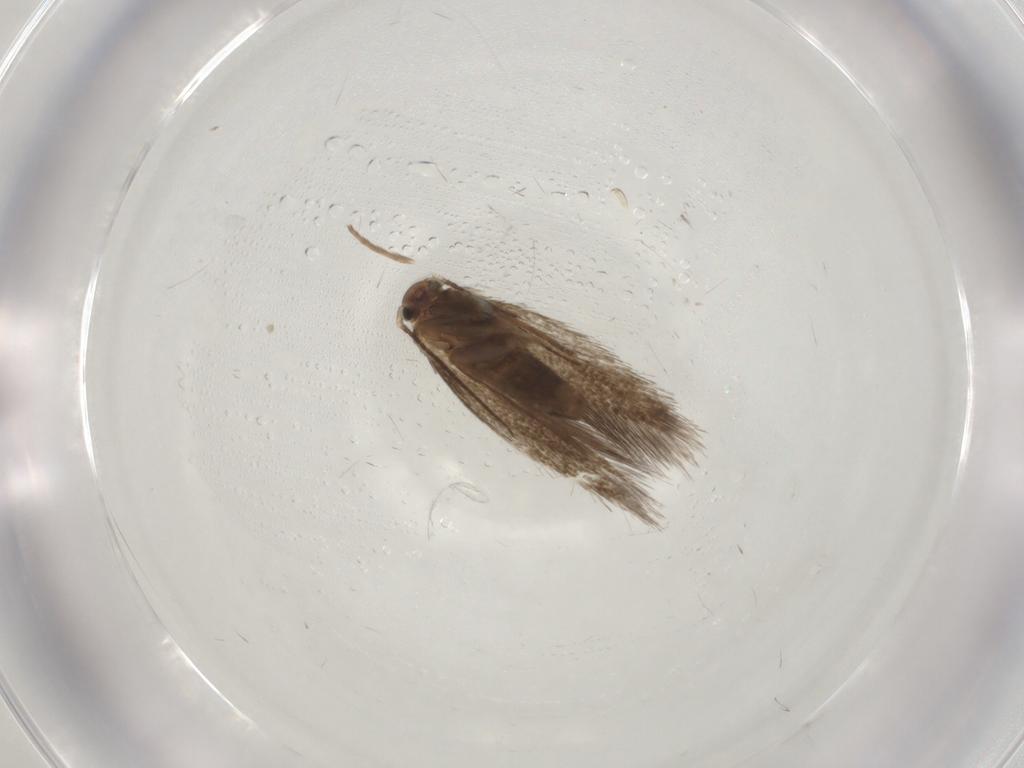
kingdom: Animalia
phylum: Arthropoda
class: Insecta
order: Lepidoptera
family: Psychidae
